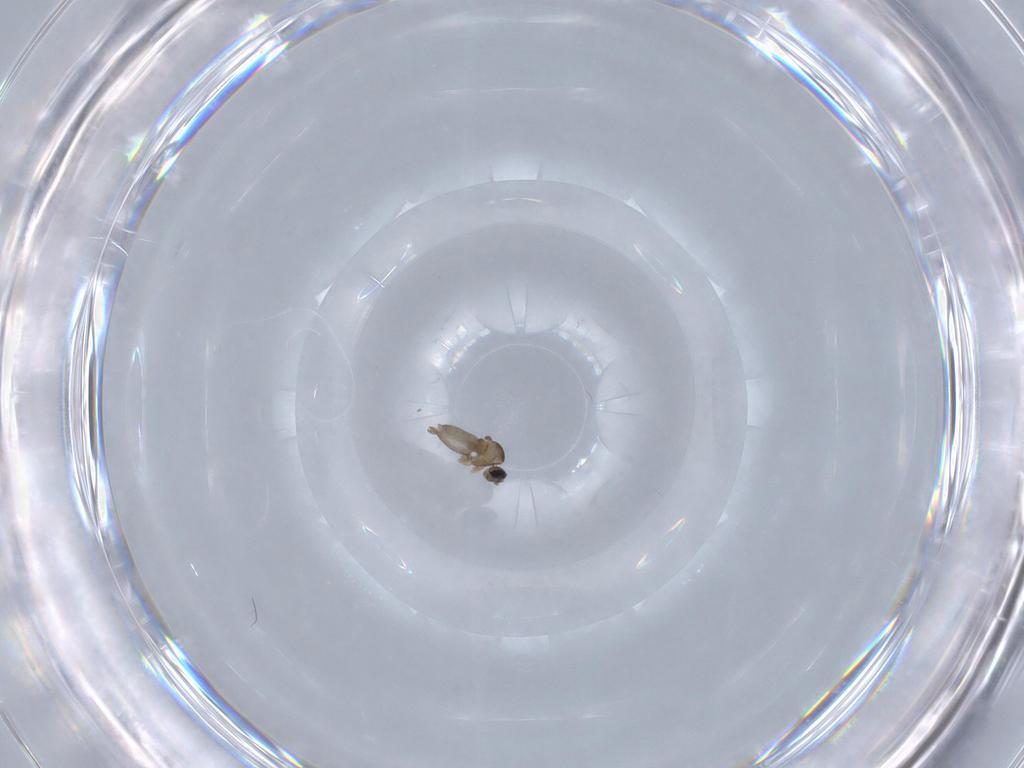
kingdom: Animalia
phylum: Arthropoda
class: Insecta
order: Diptera
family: Cecidomyiidae
